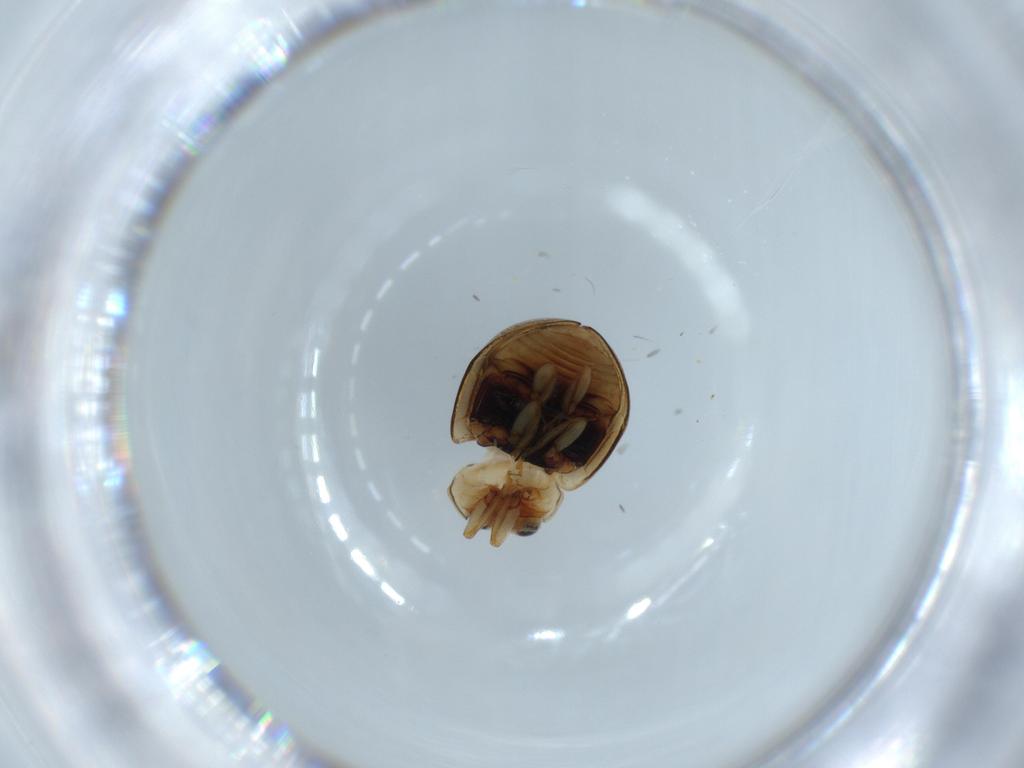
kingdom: Animalia
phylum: Arthropoda
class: Insecta
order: Coleoptera
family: Coccinellidae
